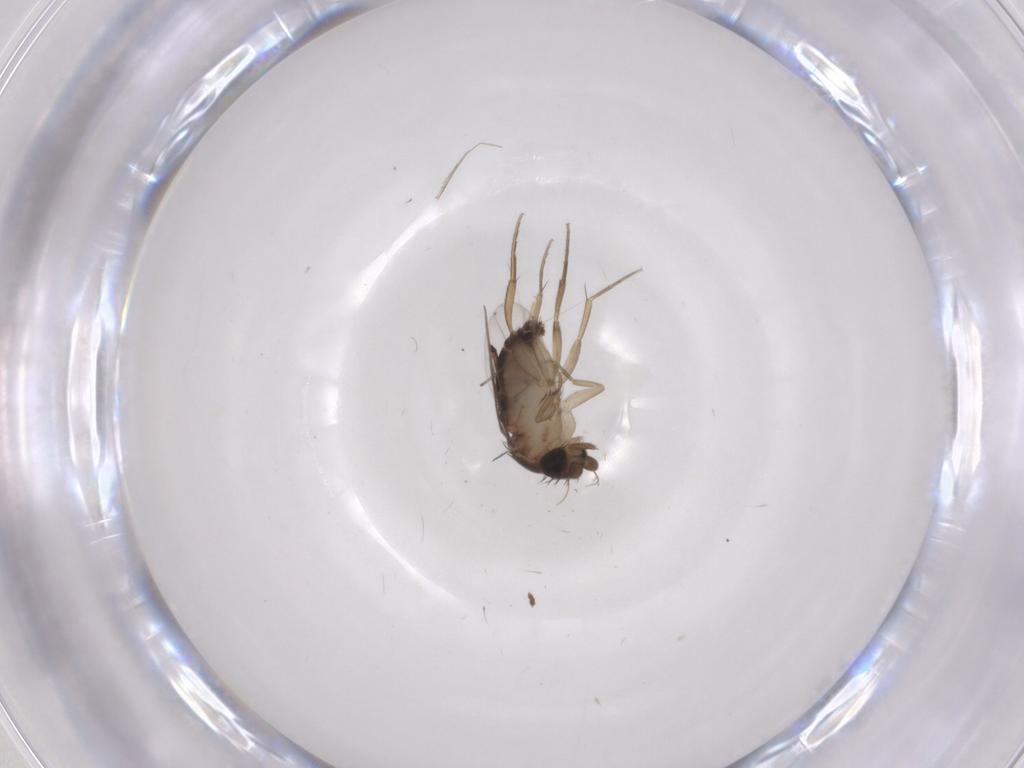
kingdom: Animalia
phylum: Arthropoda
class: Insecta
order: Diptera
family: Phoridae
